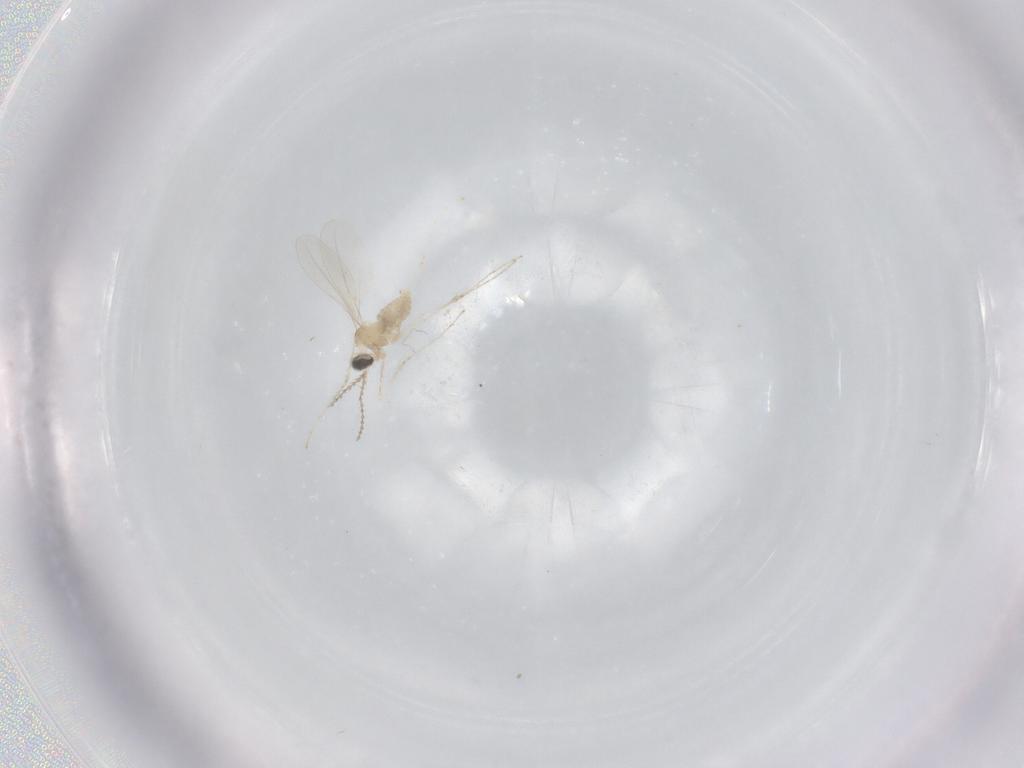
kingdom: Animalia
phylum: Arthropoda
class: Insecta
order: Diptera
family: Cecidomyiidae
